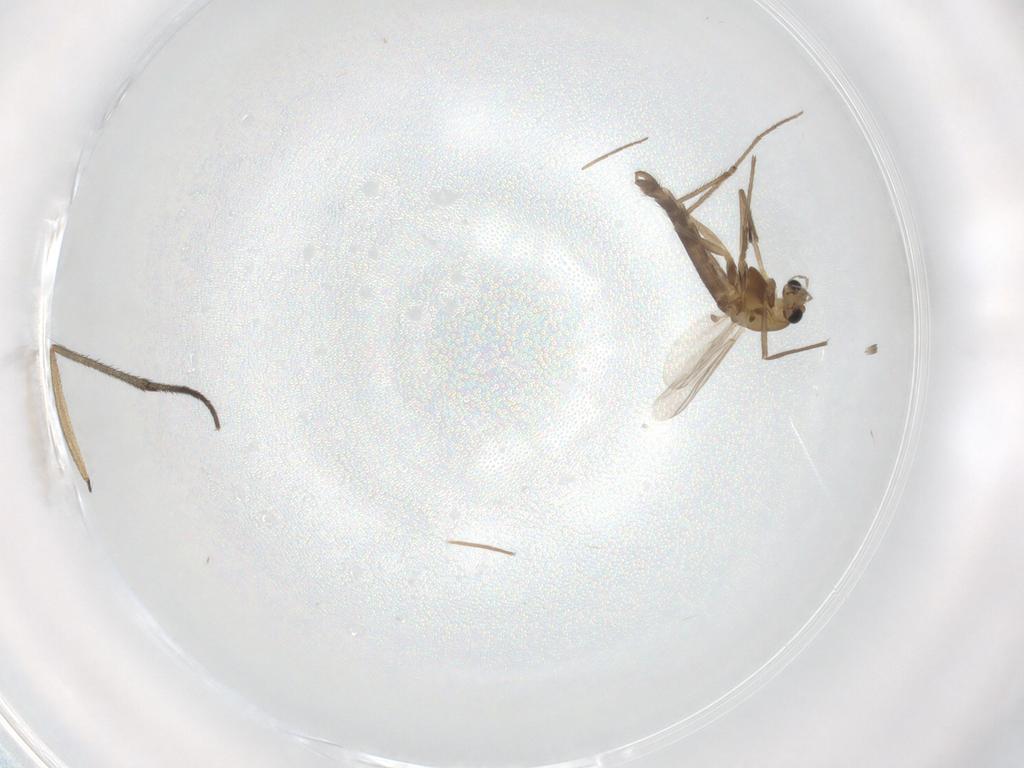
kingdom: Animalia
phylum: Arthropoda
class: Insecta
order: Diptera
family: Chironomidae
